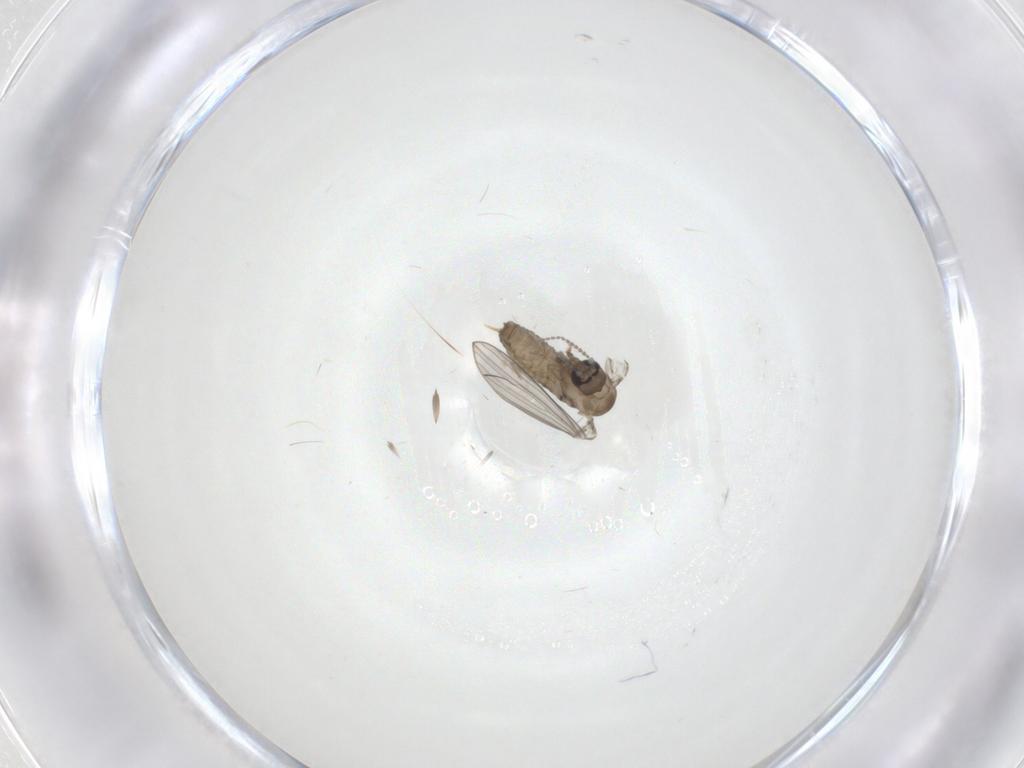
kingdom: Animalia
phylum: Arthropoda
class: Insecta
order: Diptera
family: Psychodidae
